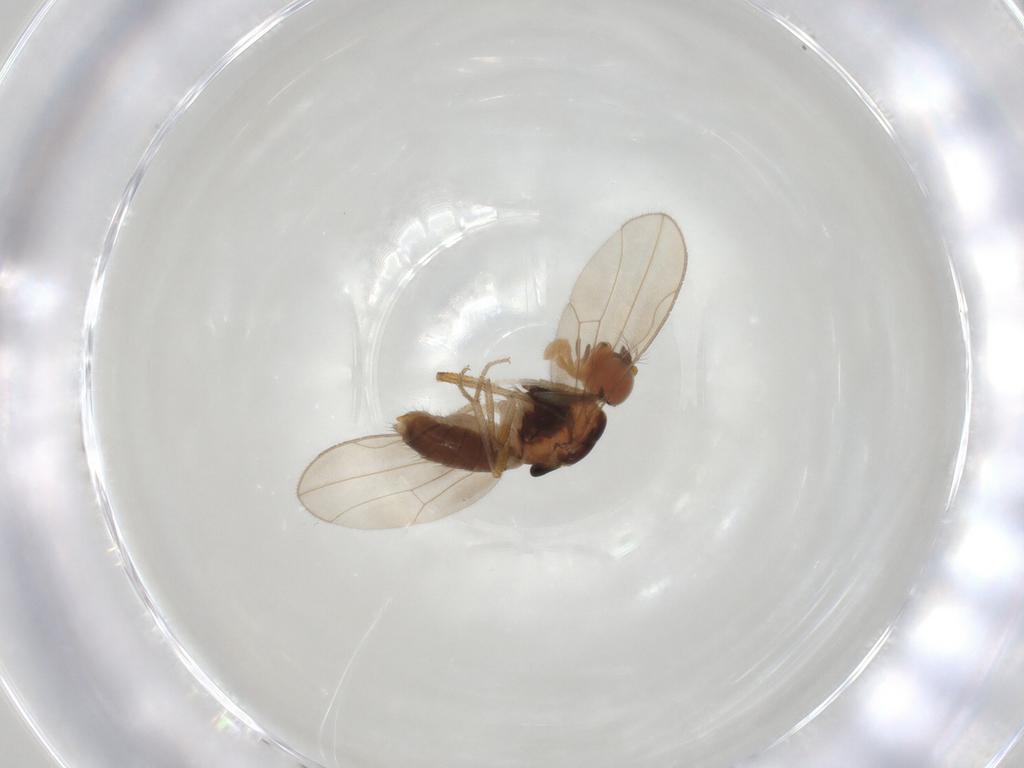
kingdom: Animalia
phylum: Arthropoda
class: Insecta
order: Diptera
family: Drosophilidae
